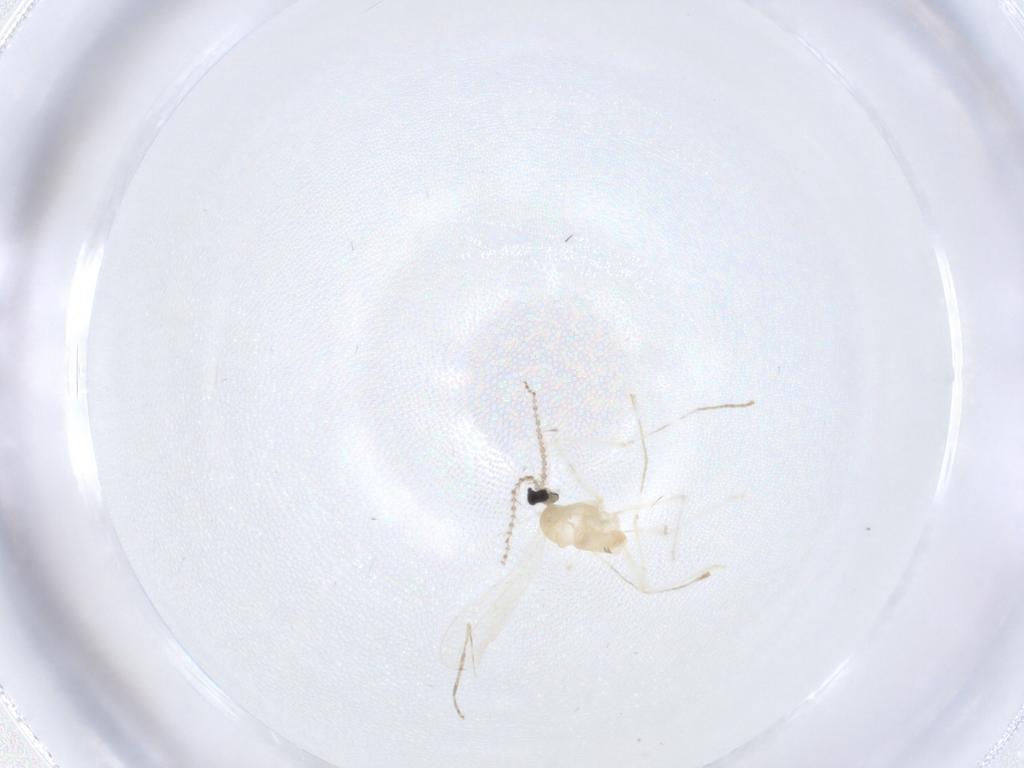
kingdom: Animalia
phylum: Arthropoda
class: Insecta
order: Diptera
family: Cecidomyiidae
